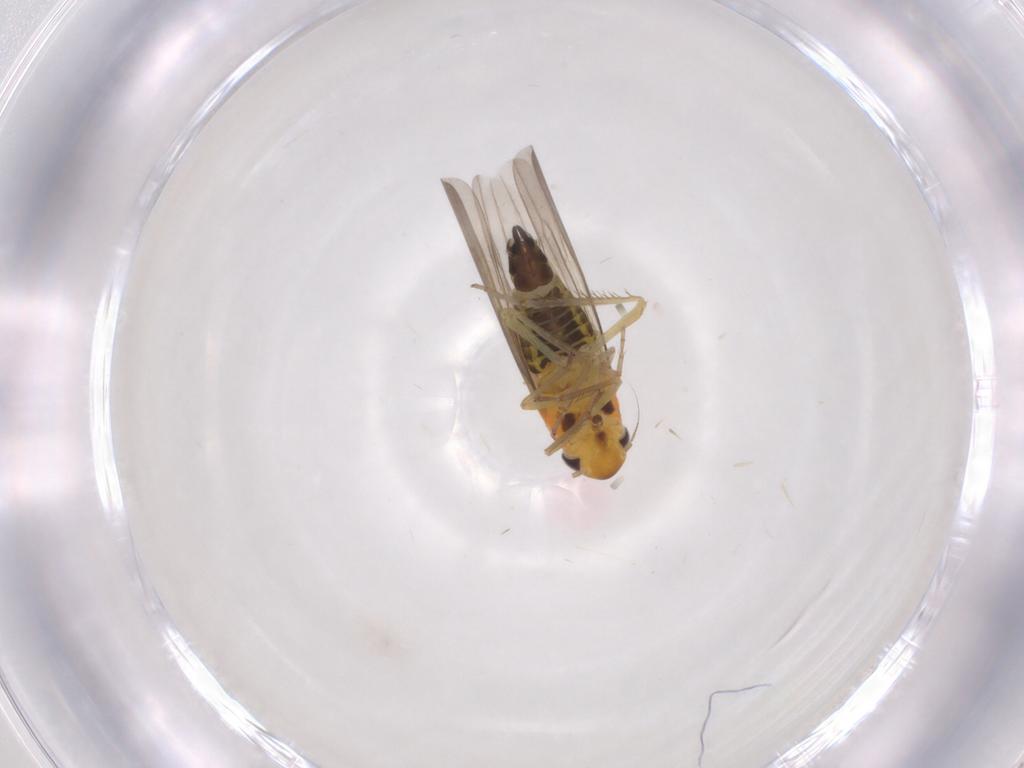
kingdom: Animalia
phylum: Arthropoda
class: Insecta
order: Hemiptera
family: Cicadellidae
